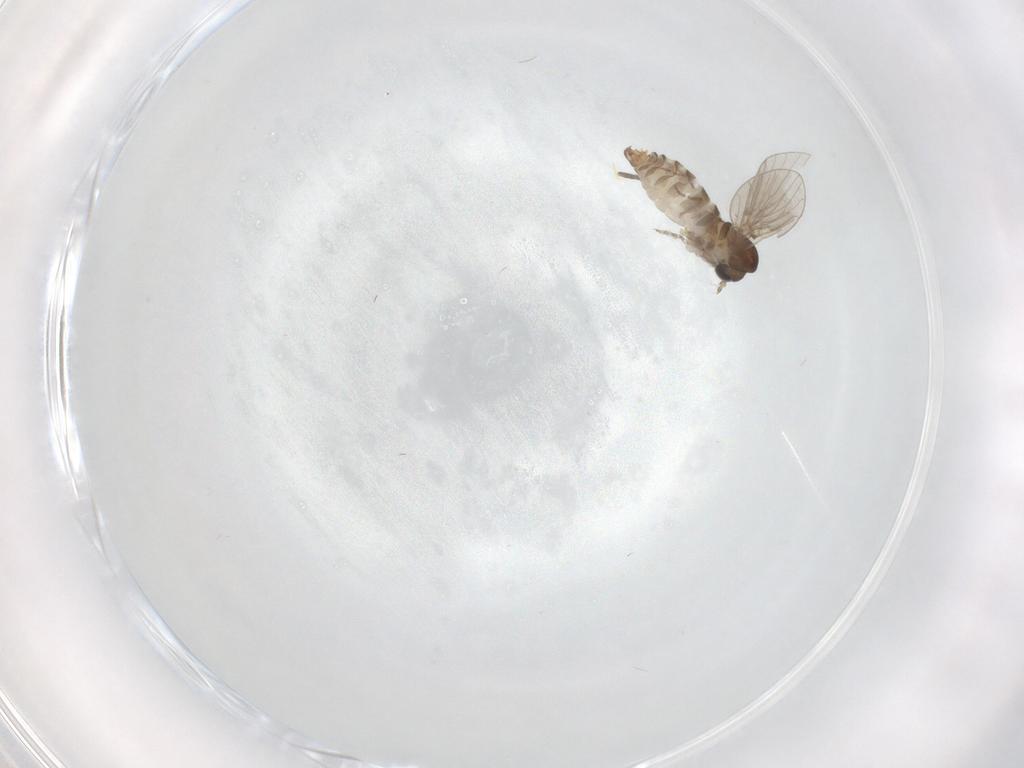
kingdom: Animalia
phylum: Arthropoda
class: Insecta
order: Diptera
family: Psychodidae
